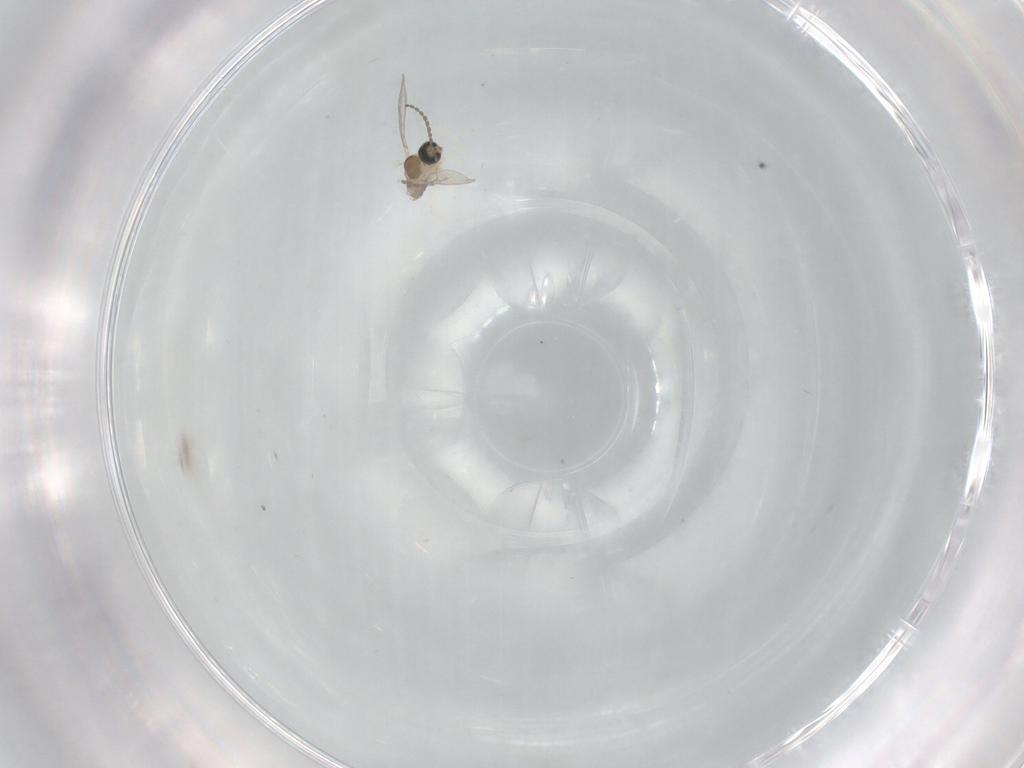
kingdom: Animalia
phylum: Arthropoda
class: Insecta
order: Diptera
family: Cecidomyiidae
